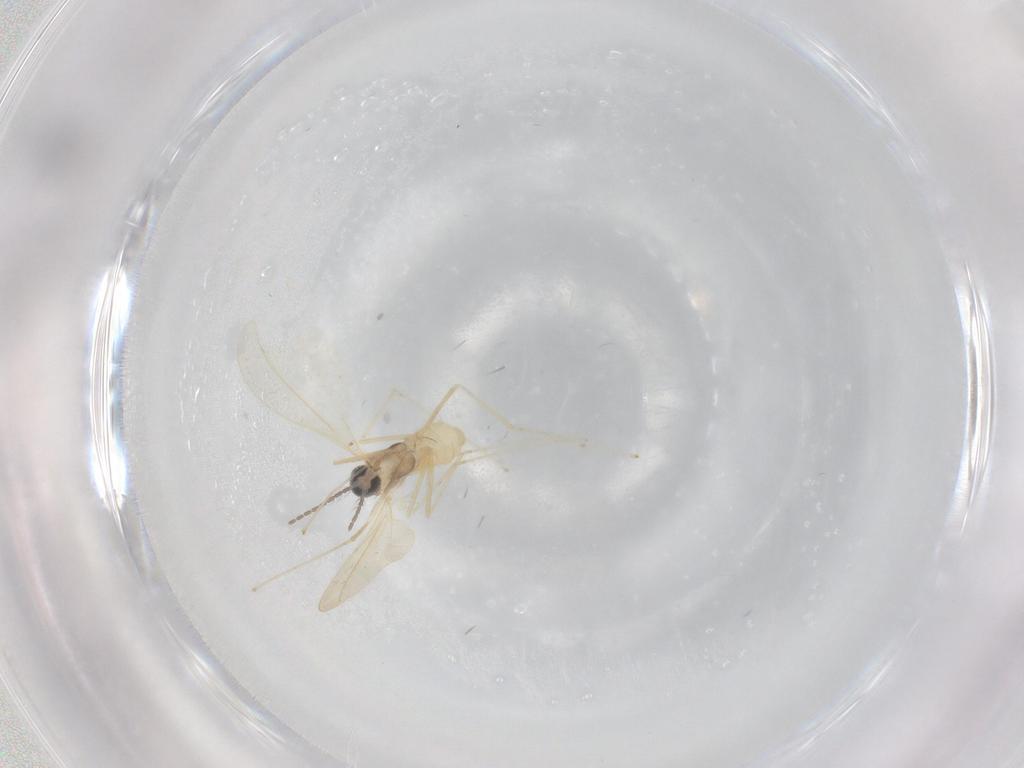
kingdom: Animalia
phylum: Arthropoda
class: Insecta
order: Diptera
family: Cecidomyiidae
